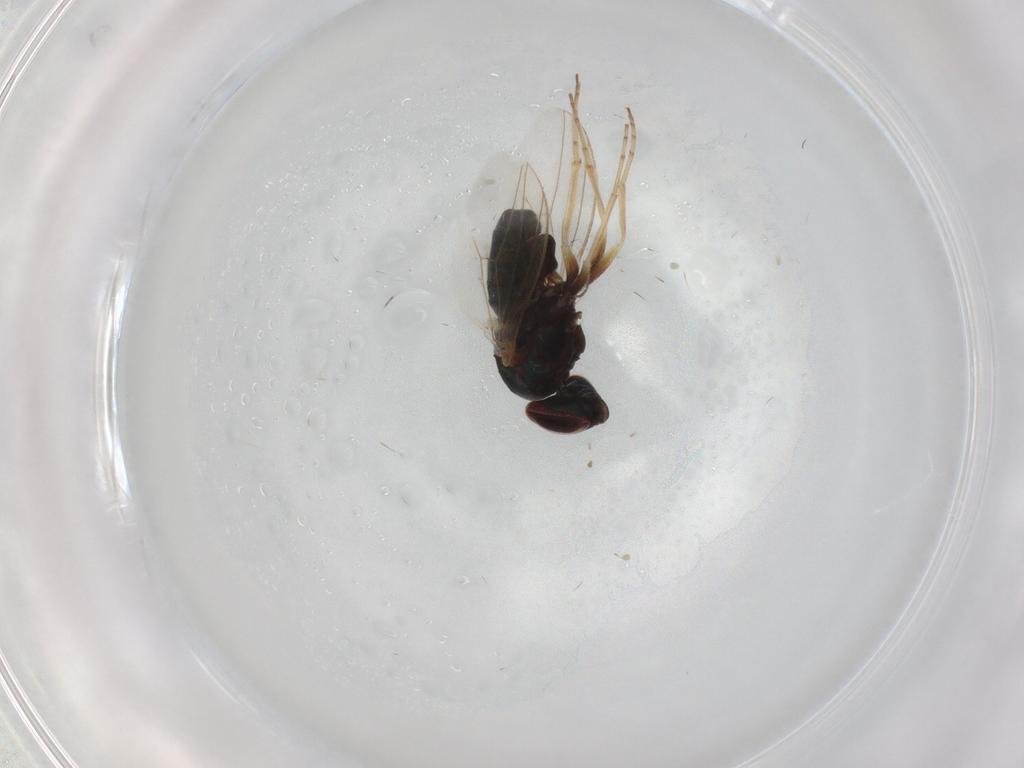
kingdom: Animalia
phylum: Arthropoda
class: Insecta
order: Diptera
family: Dolichopodidae
